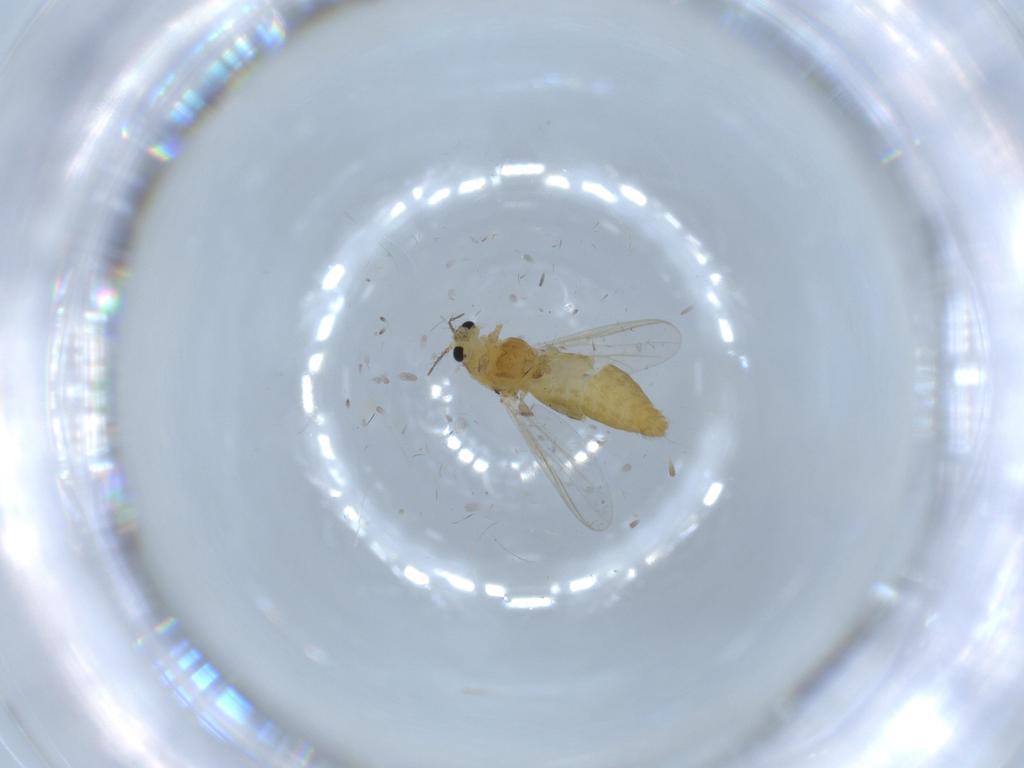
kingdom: Animalia
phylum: Arthropoda
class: Insecta
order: Diptera
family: Chironomidae
